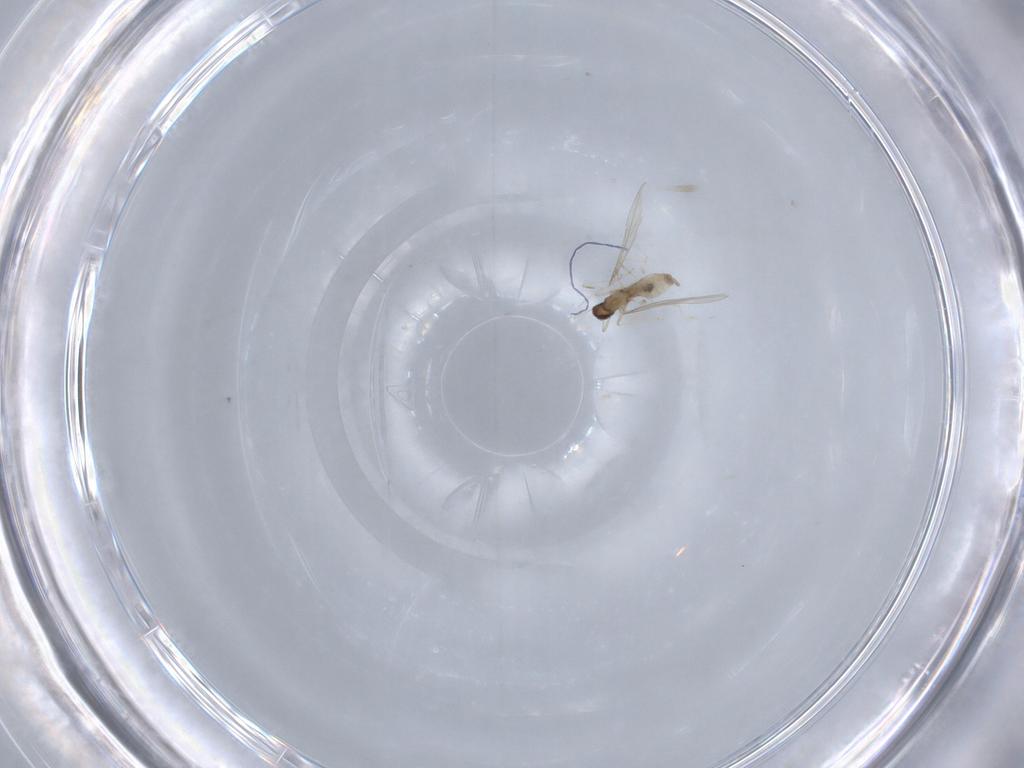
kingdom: Animalia
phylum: Arthropoda
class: Insecta
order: Diptera
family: Cecidomyiidae
